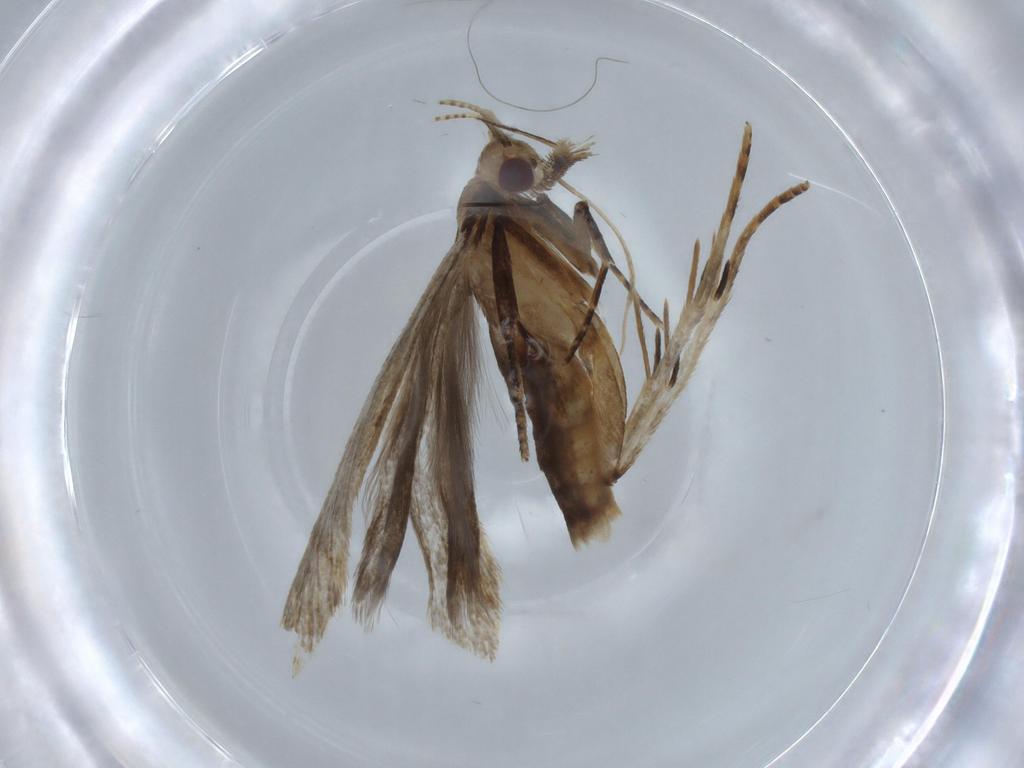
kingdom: Animalia
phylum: Arthropoda
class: Insecta
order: Lepidoptera
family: Gelechiidae
